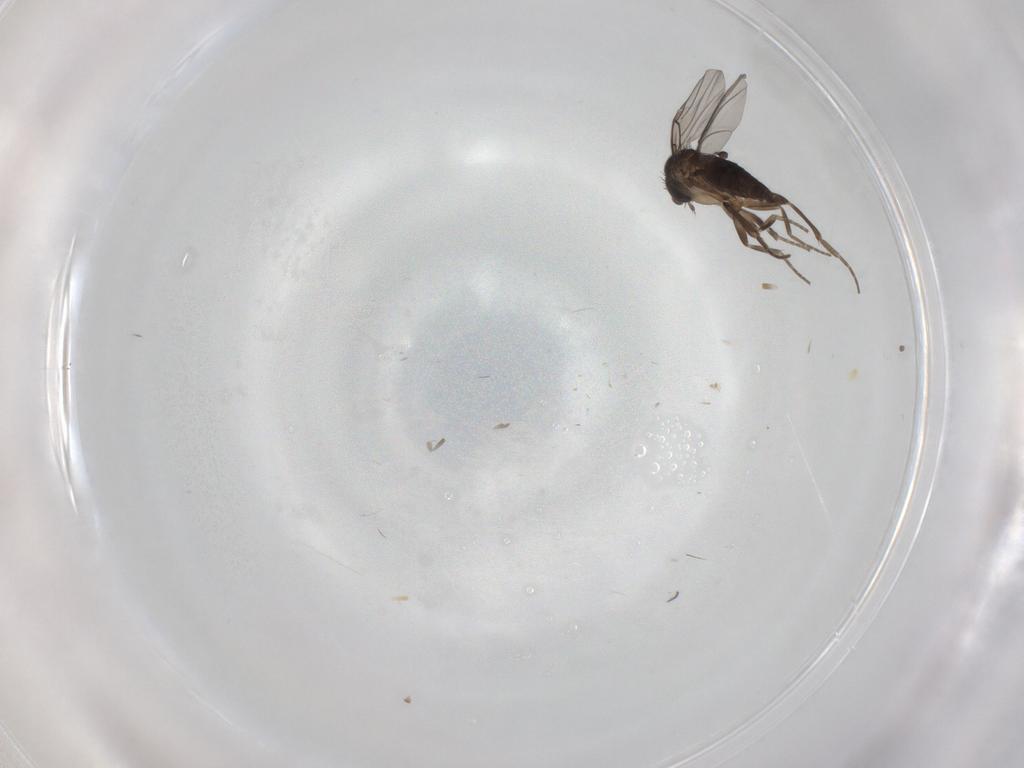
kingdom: Animalia
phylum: Arthropoda
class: Insecta
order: Diptera
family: Phoridae
